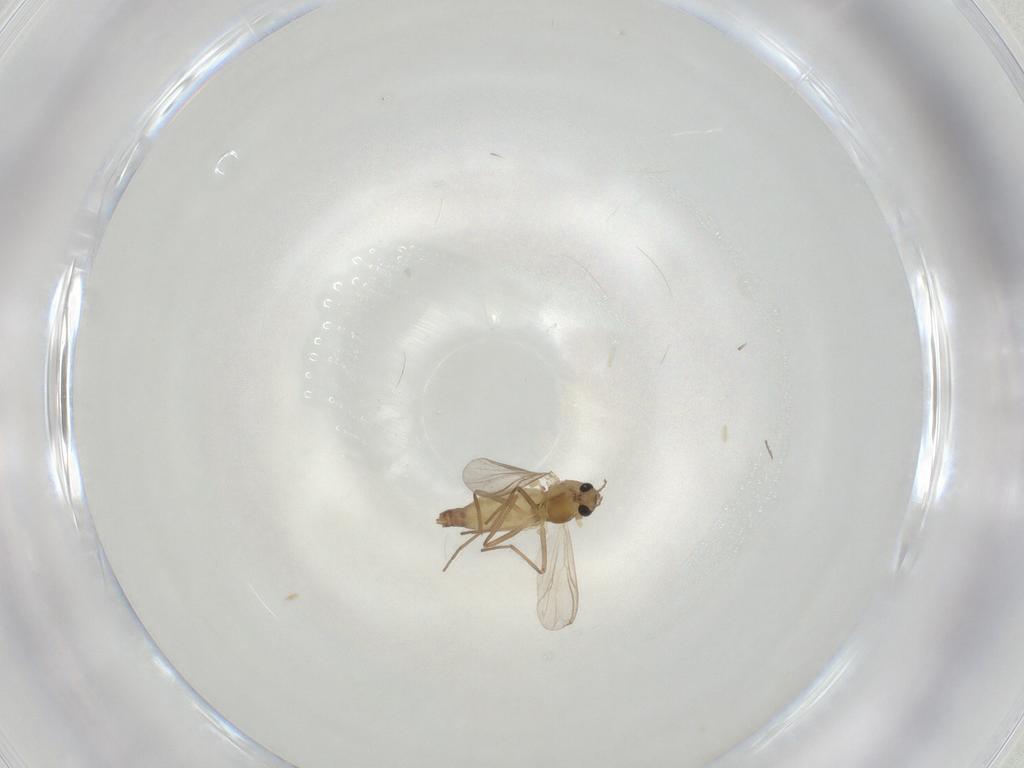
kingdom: Animalia
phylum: Arthropoda
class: Insecta
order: Diptera
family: Chironomidae
